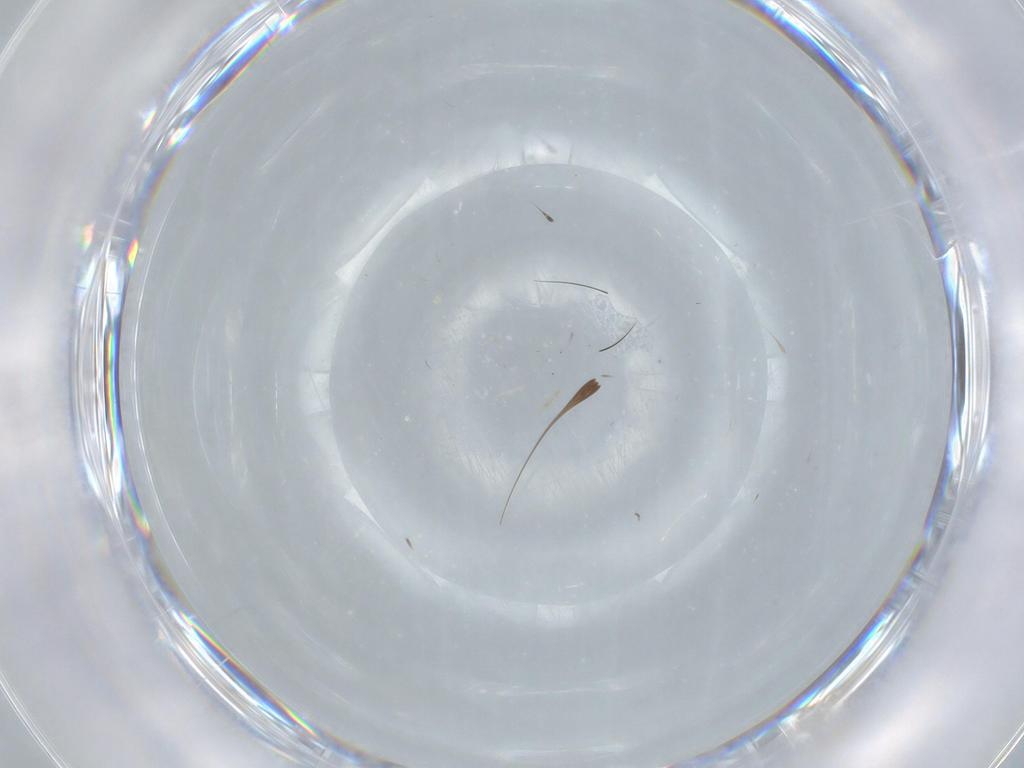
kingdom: Animalia
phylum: Arthropoda
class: Insecta
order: Hymenoptera
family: Trichogrammatidae
